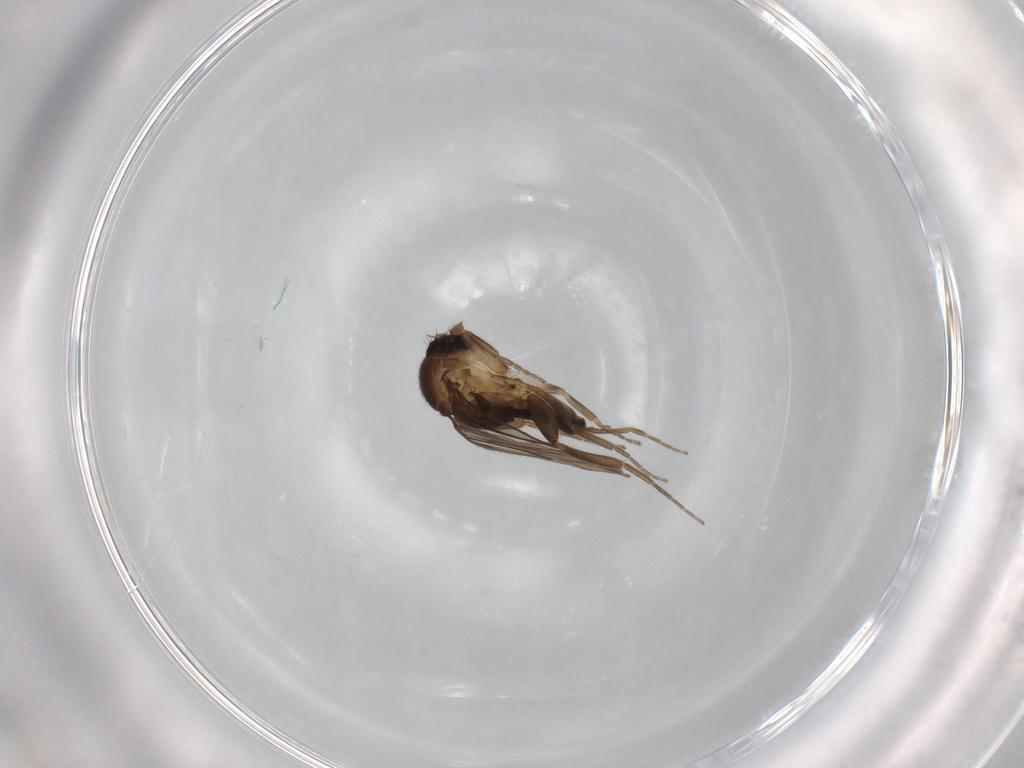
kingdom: Animalia
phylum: Arthropoda
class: Insecta
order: Diptera
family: Limoniidae
